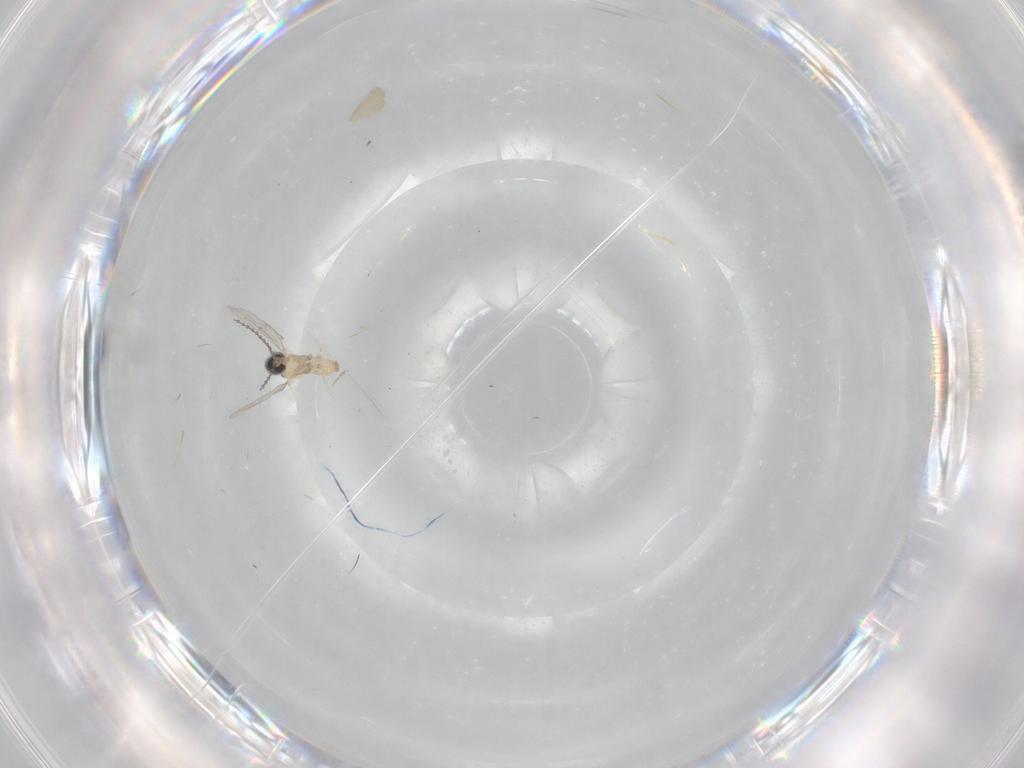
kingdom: Animalia
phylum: Arthropoda
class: Insecta
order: Diptera
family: Cecidomyiidae
